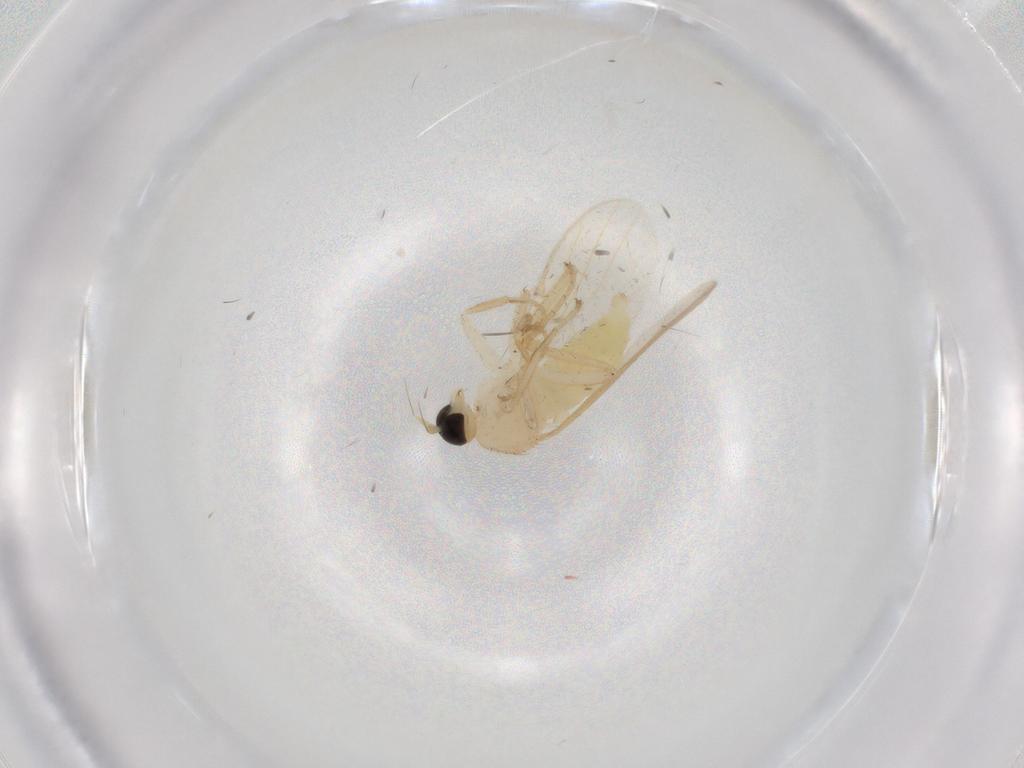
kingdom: Animalia
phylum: Arthropoda
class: Insecta
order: Diptera
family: Hybotidae
